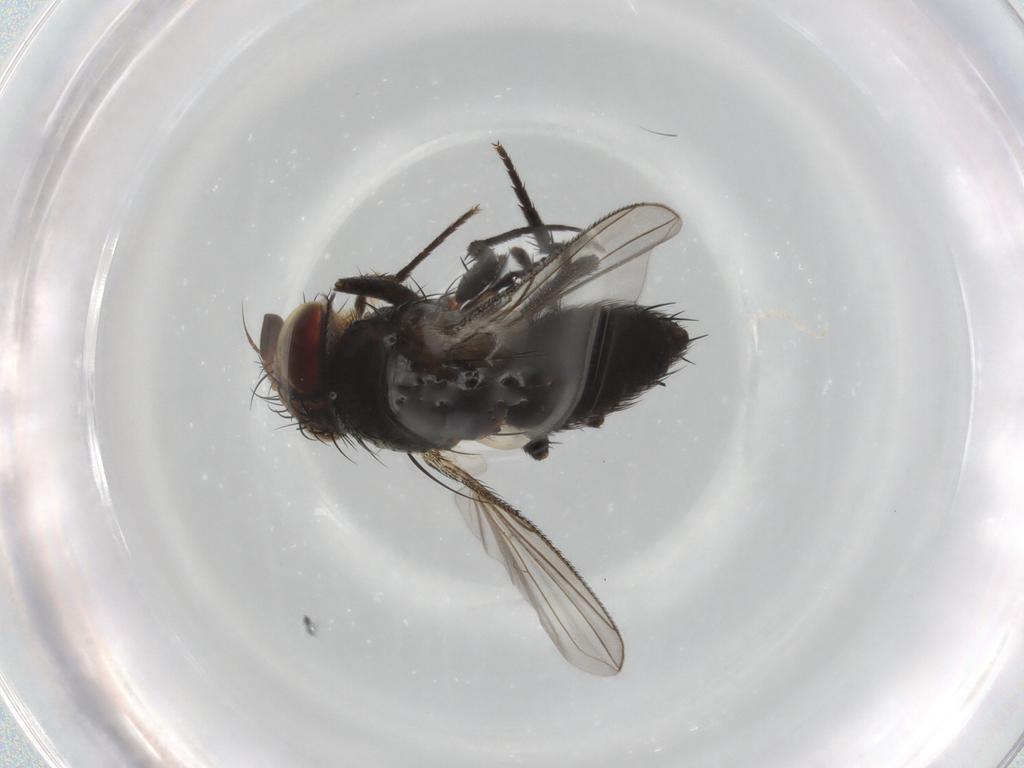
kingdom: Animalia
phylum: Arthropoda
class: Insecta
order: Diptera
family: Tachinidae
